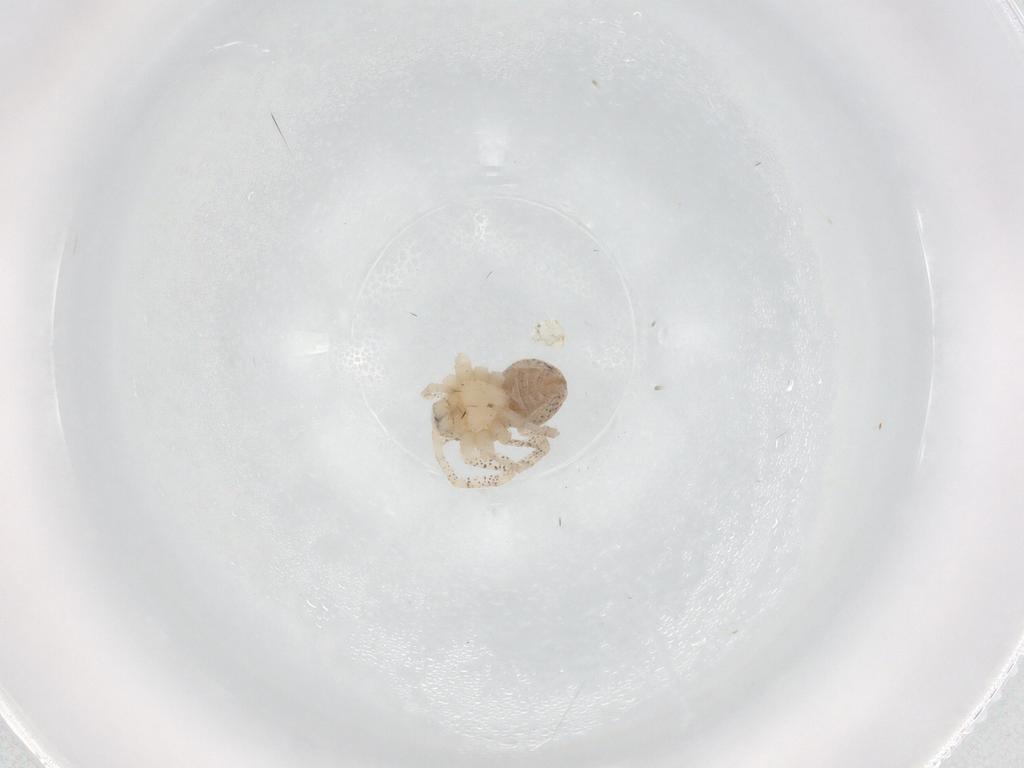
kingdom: Animalia
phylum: Arthropoda
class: Arachnida
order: Araneae
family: Philodromidae
